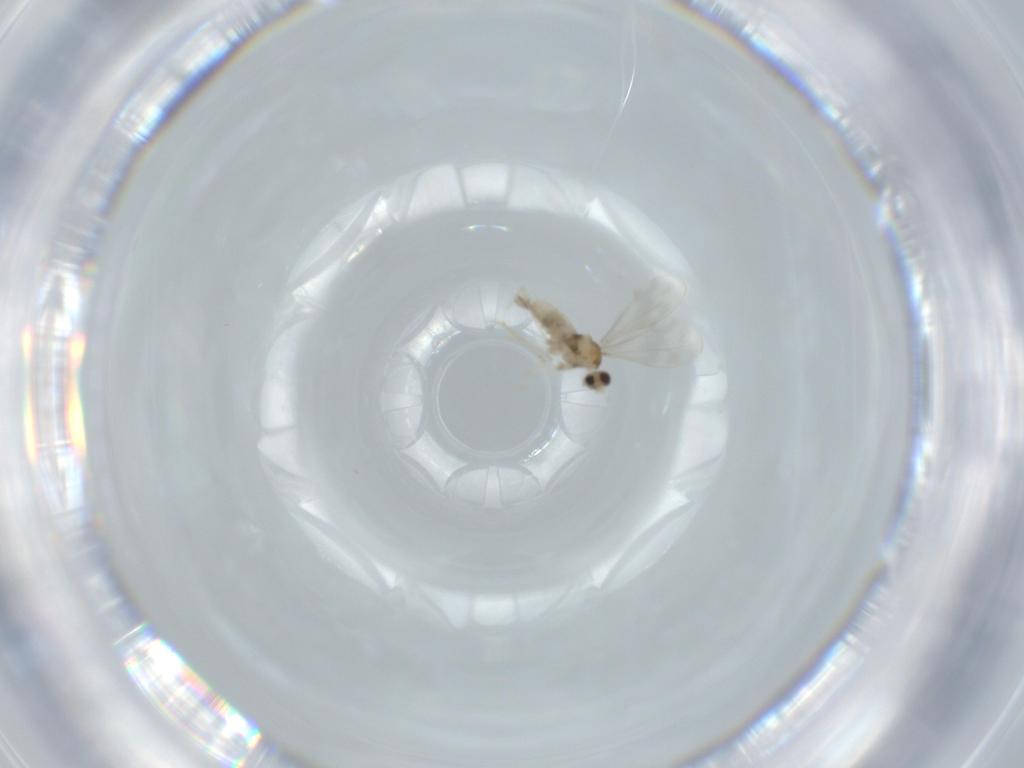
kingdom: Animalia
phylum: Arthropoda
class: Insecta
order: Diptera
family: Cecidomyiidae
